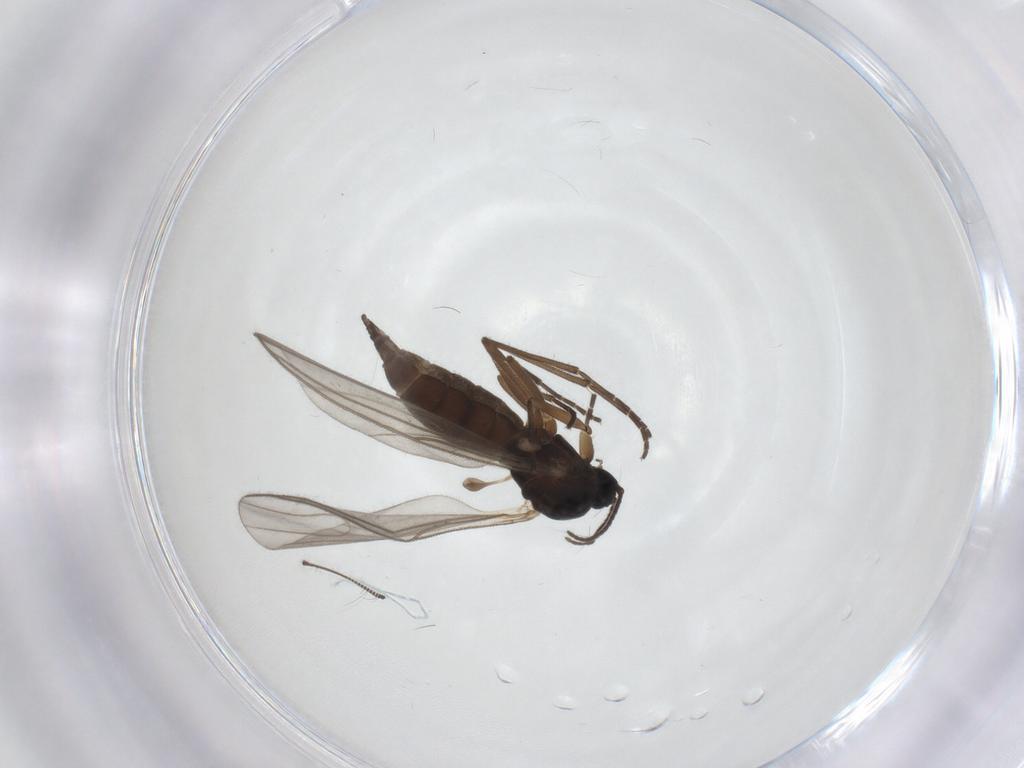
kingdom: Animalia
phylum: Arthropoda
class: Insecta
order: Diptera
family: Sciaridae
